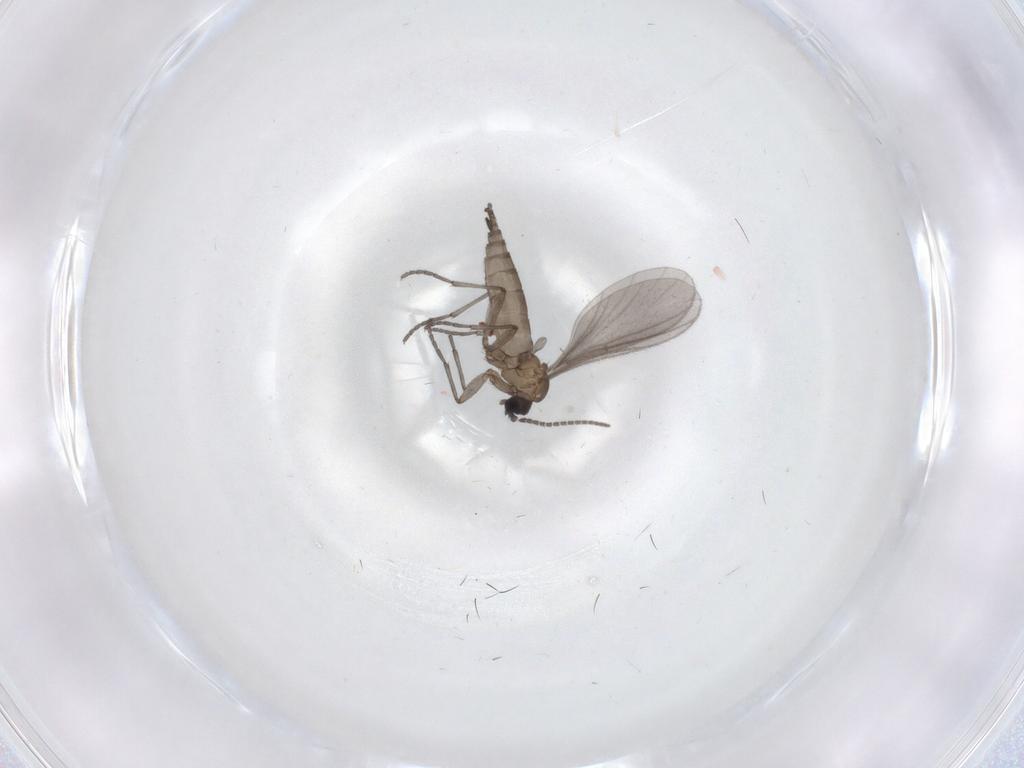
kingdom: Animalia
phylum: Arthropoda
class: Insecta
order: Diptera
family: Sciaridae
